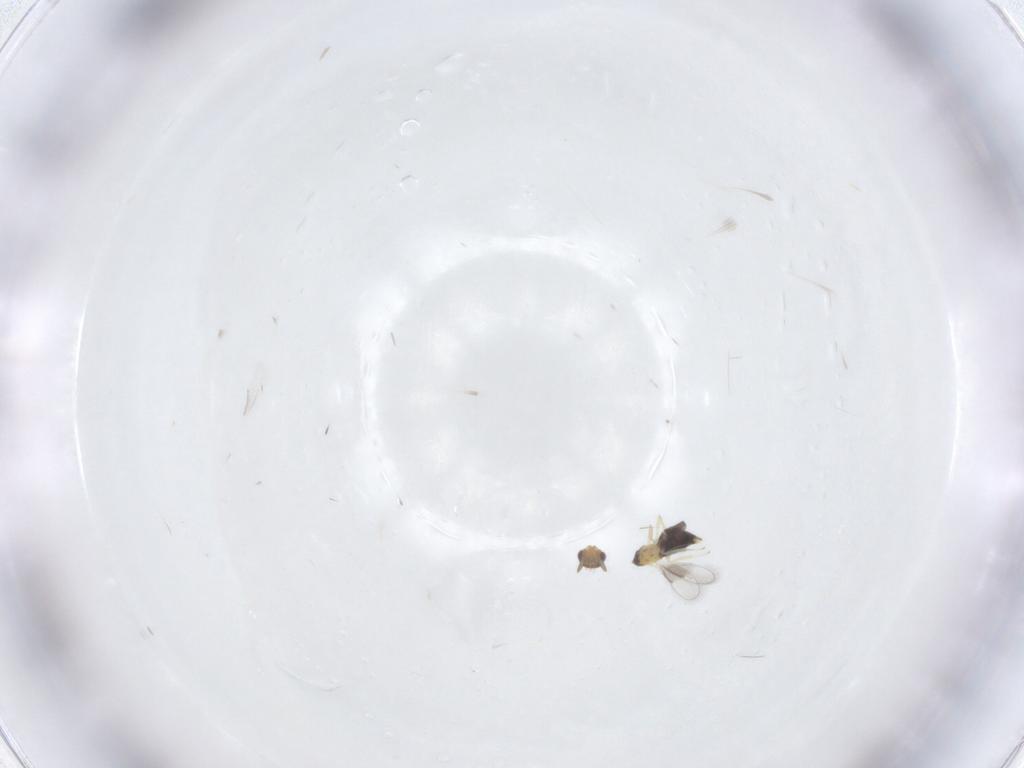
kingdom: Animalia
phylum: Arthropoda
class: Insecta
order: Hymenoptera
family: Aphelinidae
